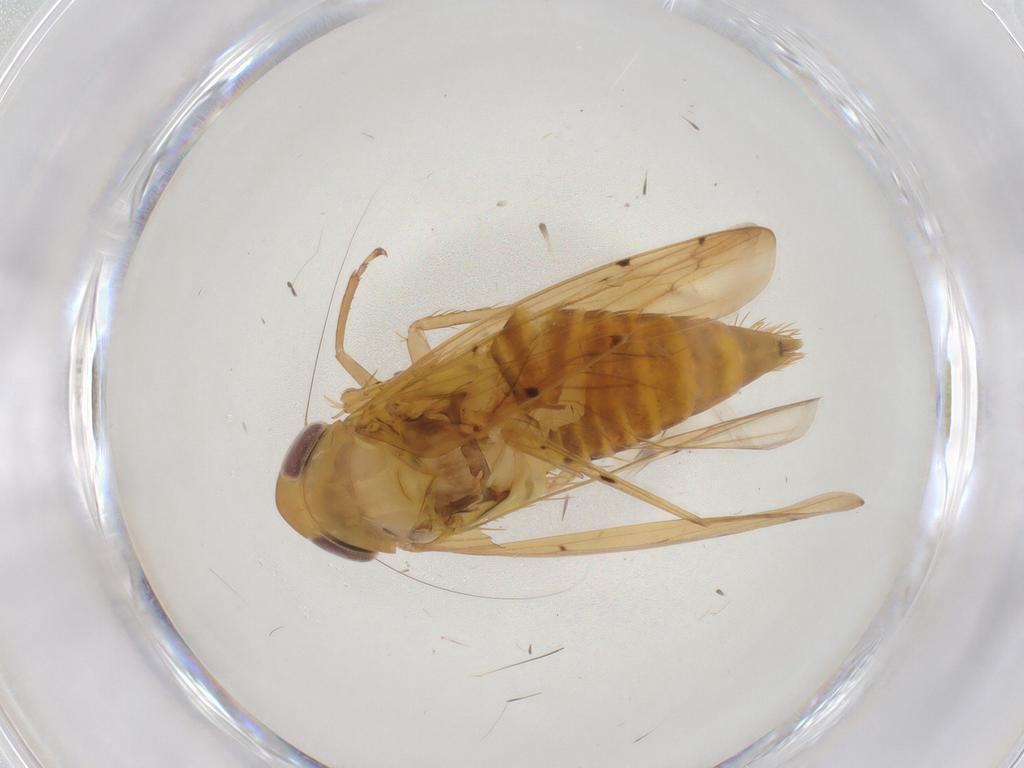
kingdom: Animalia
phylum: Arthropoda
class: Insecta
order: Hemiptera
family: Cicadellidae
